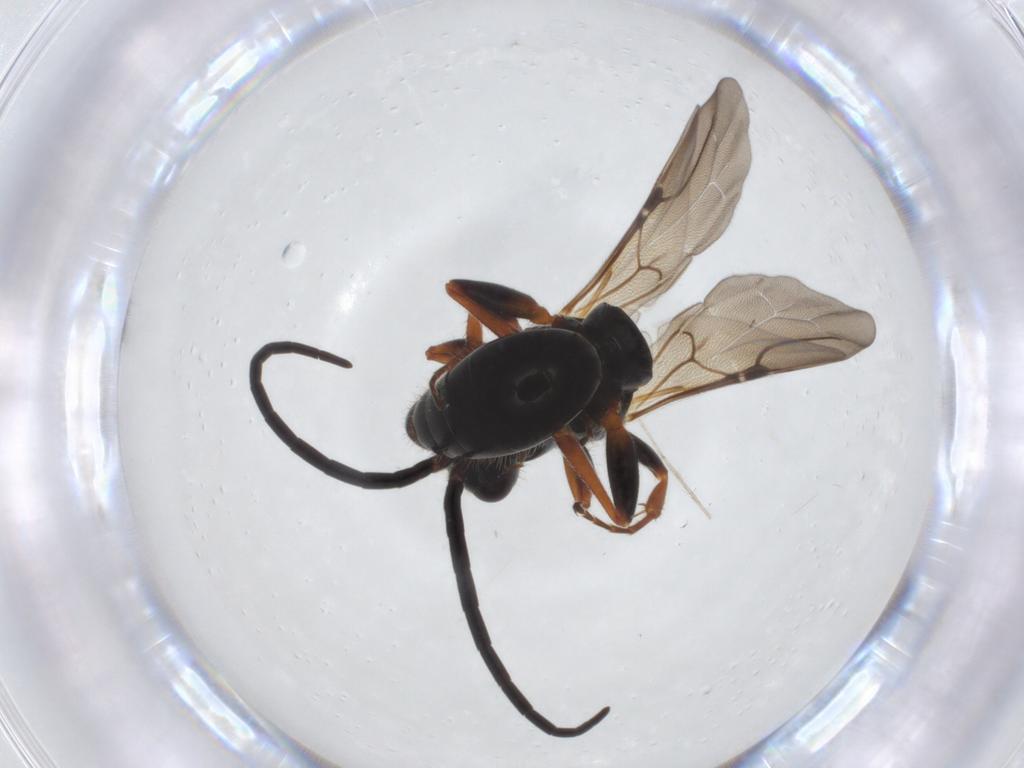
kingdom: Animalia
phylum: Arthropoda
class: Insecta
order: Hymenoptera
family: Bethylidae
